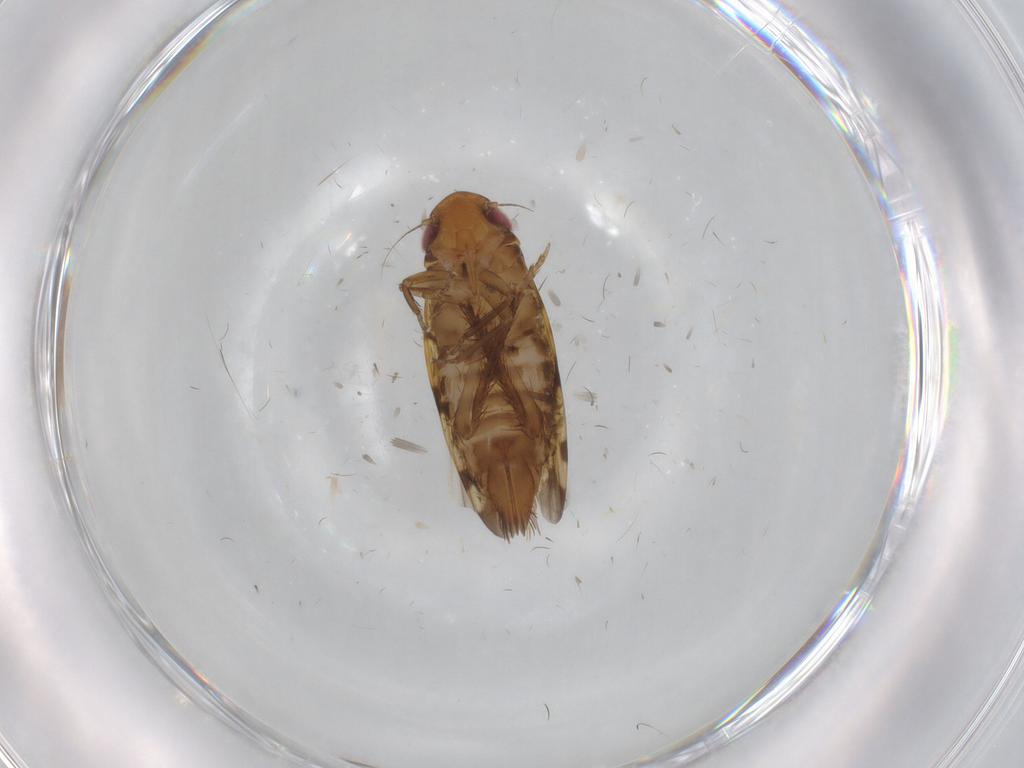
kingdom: Animalia
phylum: Arthropoda
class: Insecta
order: Hemiptera
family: Cicadellidae
